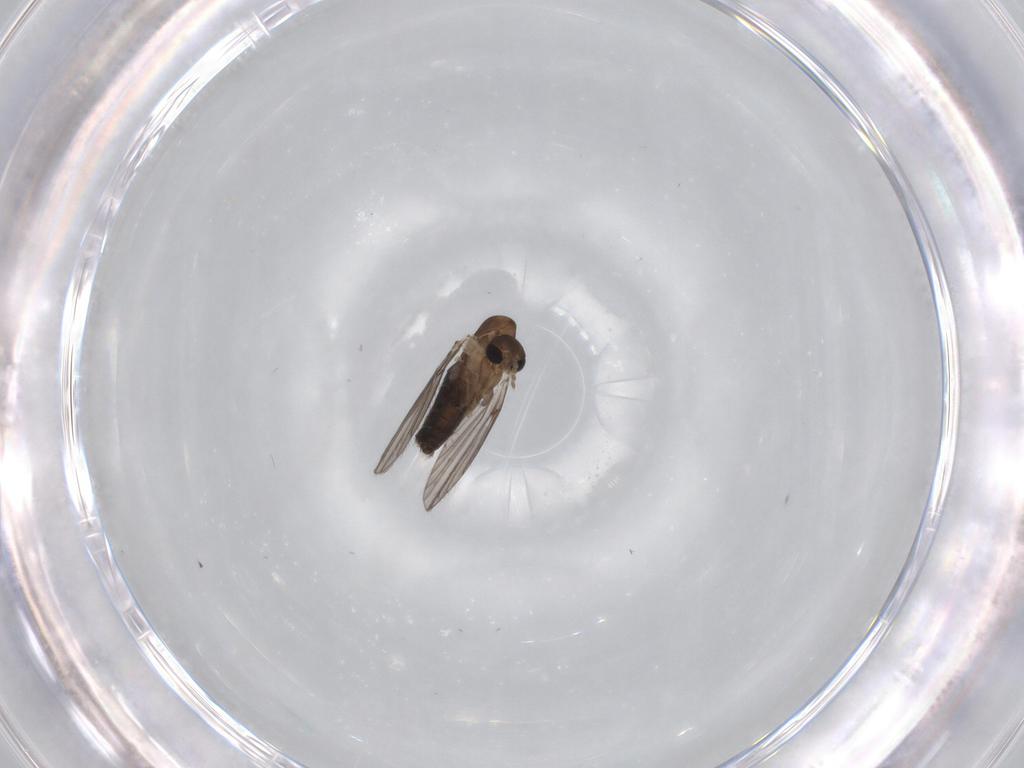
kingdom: Animalia
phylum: Arthropoda
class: Insecta
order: Diptera
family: Psychodidae
